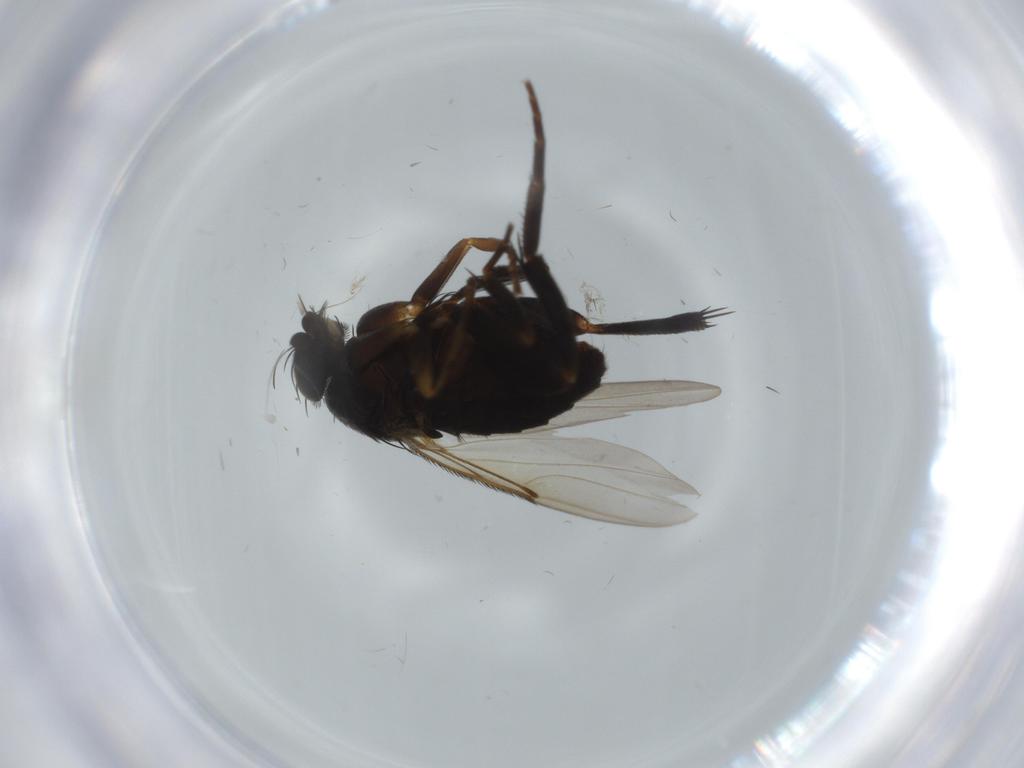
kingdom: Animalia
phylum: Arthropoda
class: Insecta
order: Diptera
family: Phoridae
